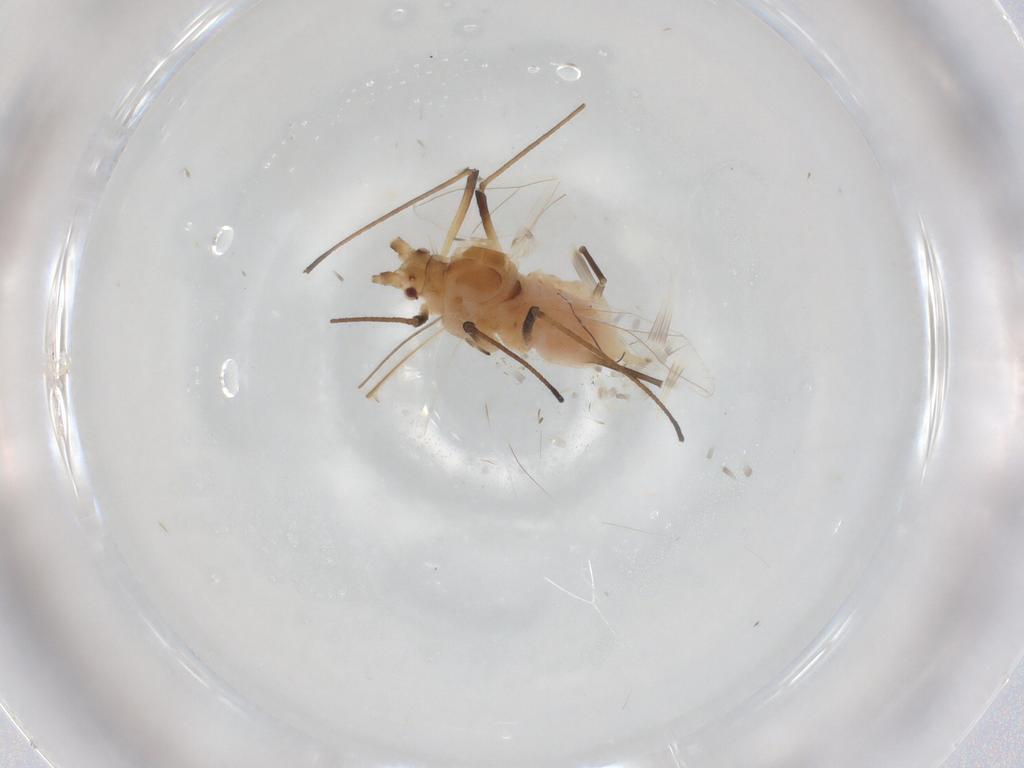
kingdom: Animalia
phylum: Arthropoda
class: Insecta
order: Hemiptera
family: Aphididae
